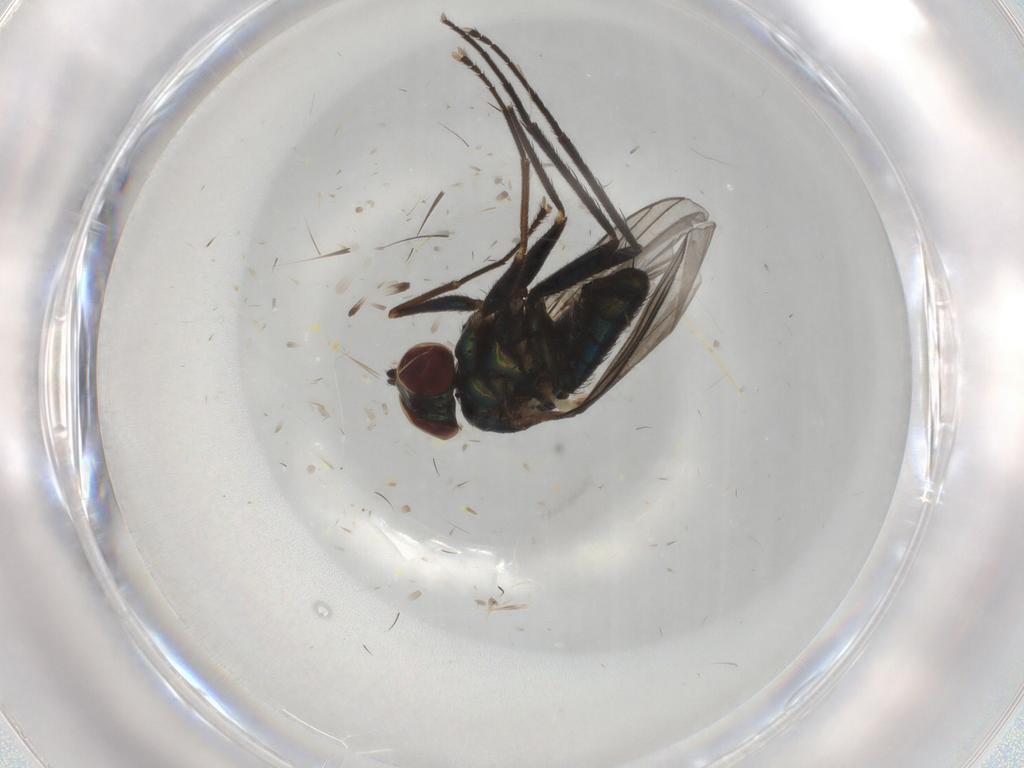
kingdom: Animalia
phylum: Arthropoda
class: Insecta
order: Diptera
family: Dolichopodidae
